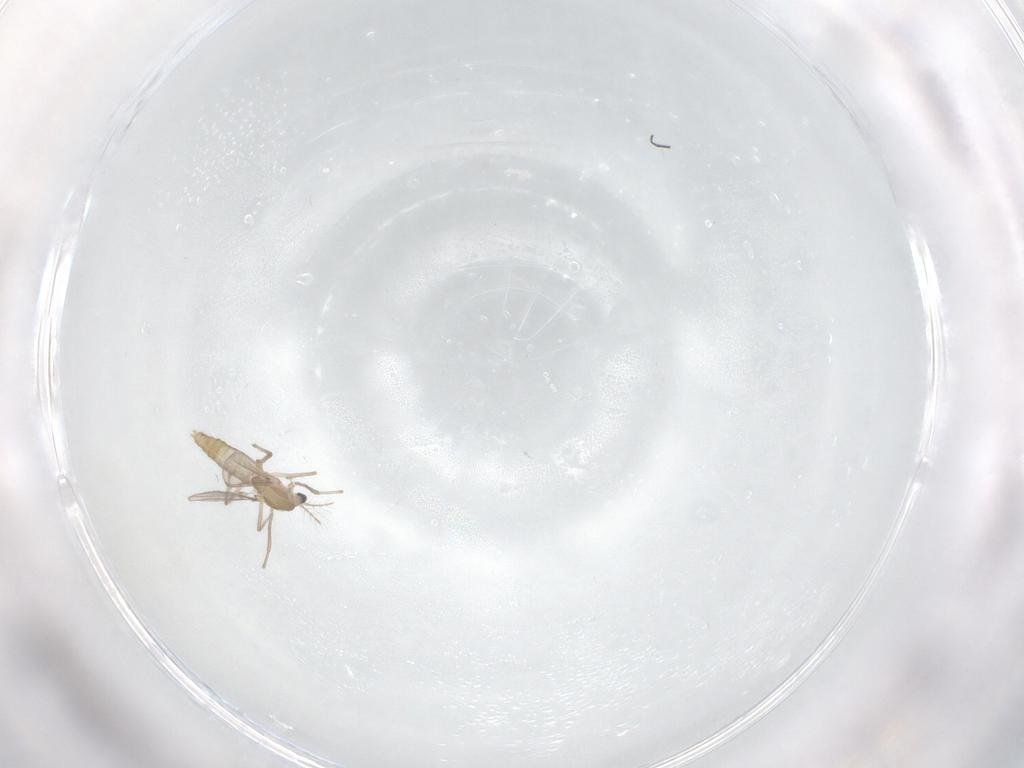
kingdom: Animalia
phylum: Arthropoda
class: Insecta
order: Diptera
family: Chironomidae
